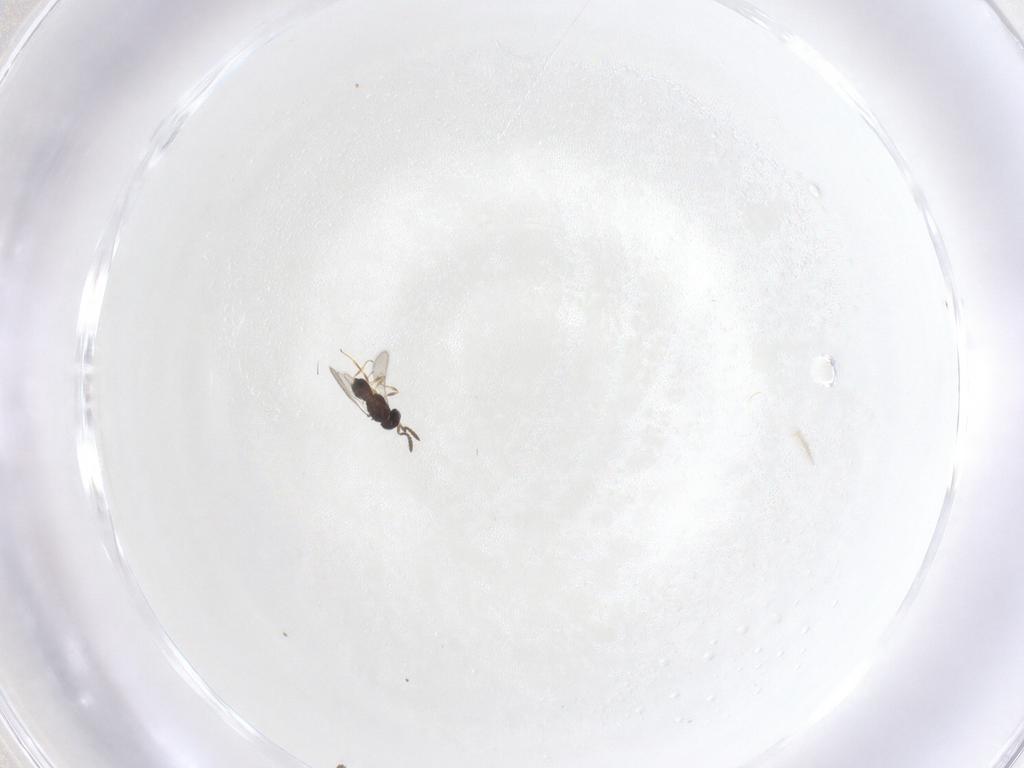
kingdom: Animalia
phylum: Arthropoda
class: Insecta
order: Hymenoptera
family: Scelionidae
